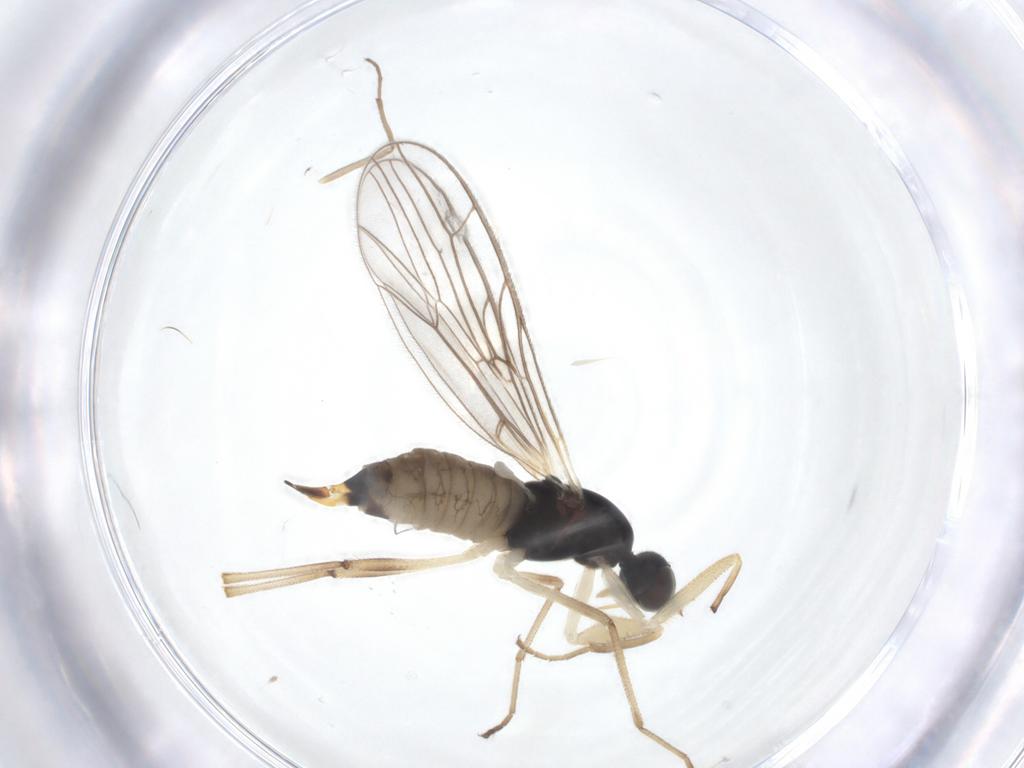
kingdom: Animalia
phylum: Arthropoda
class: Insecta
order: Diptera
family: Empididae
